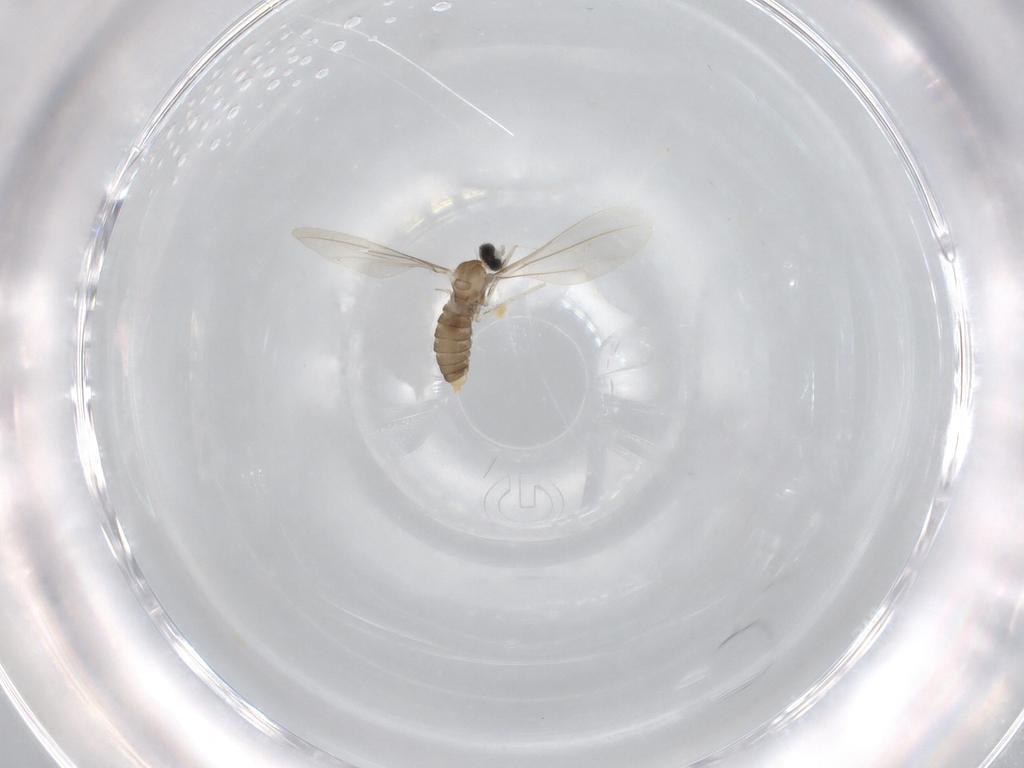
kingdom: Animalia
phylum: Arthropoda
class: Insecta
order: Diptera
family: Cecidomyiidae
